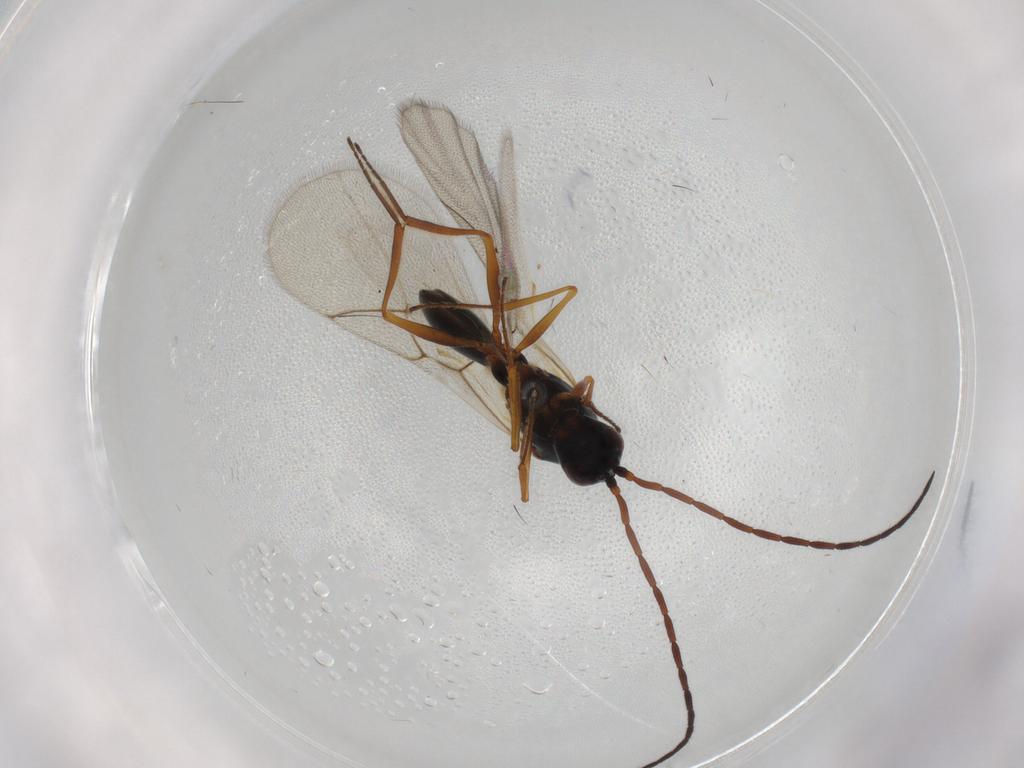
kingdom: Animalia
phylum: Arthropoda
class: Insecta
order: Hymenoptera
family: Figitidae
